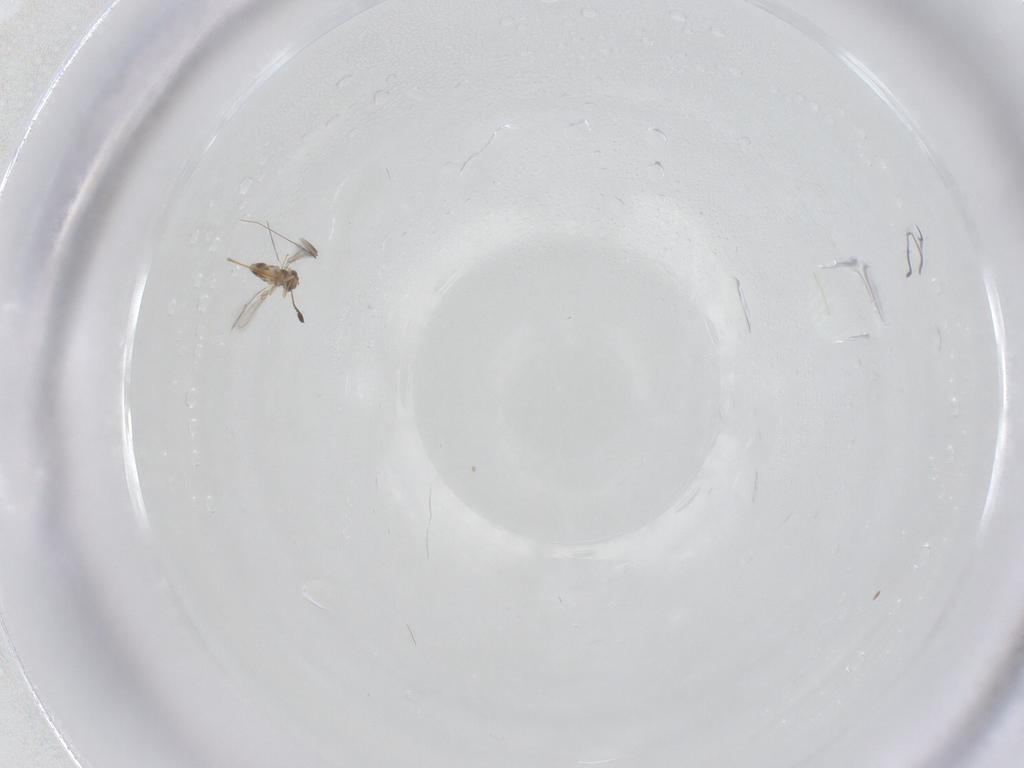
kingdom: Animalia
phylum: Arthropoda
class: Insecta
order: Hymenoptera
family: Mymaridae
